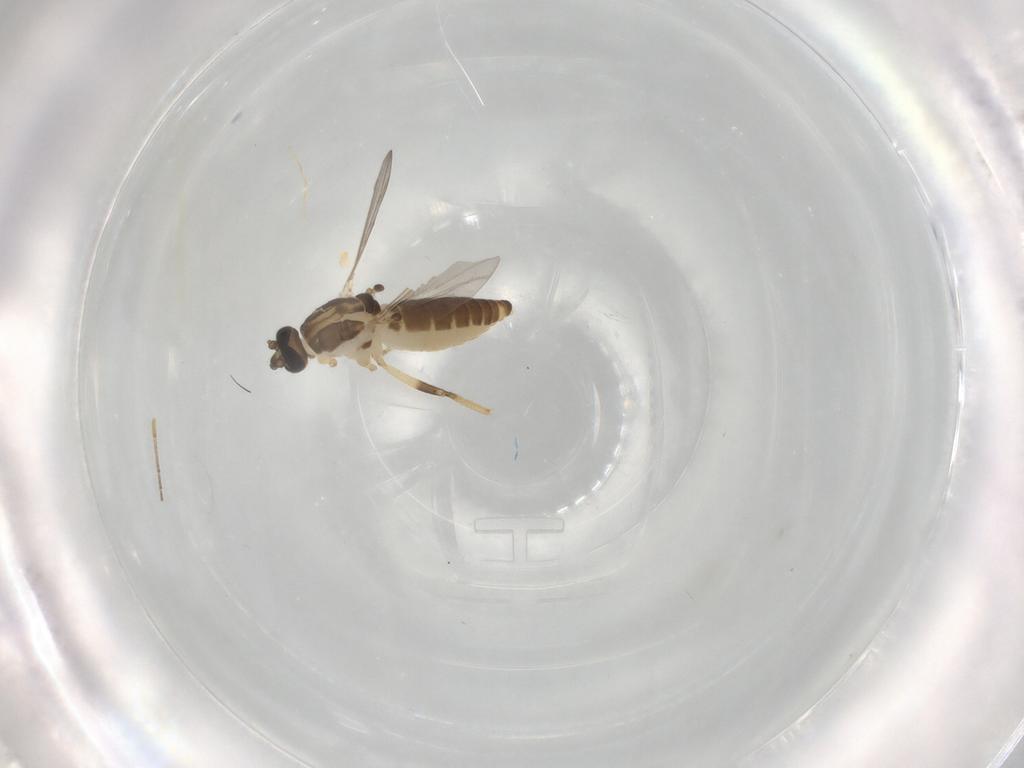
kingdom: Animalia
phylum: Arthropoda
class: Insecta
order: Diptera
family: Ceratopogonidae
